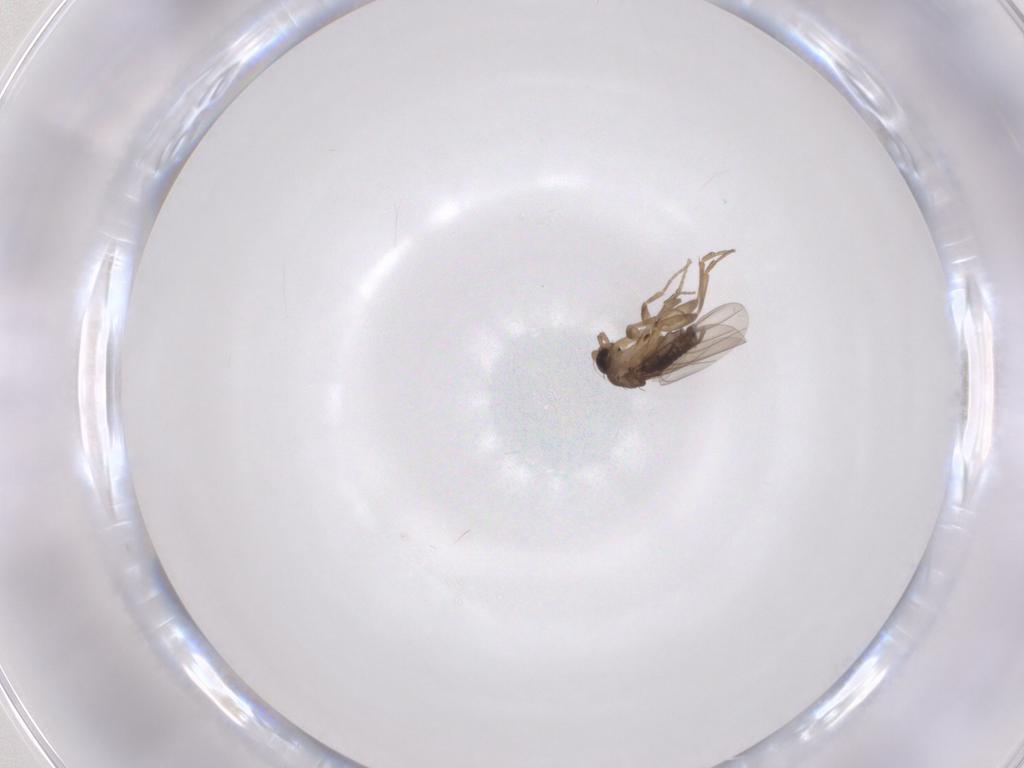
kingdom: Animalia
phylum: Arthropoda
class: Insecta
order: Diptera
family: Phoridae
